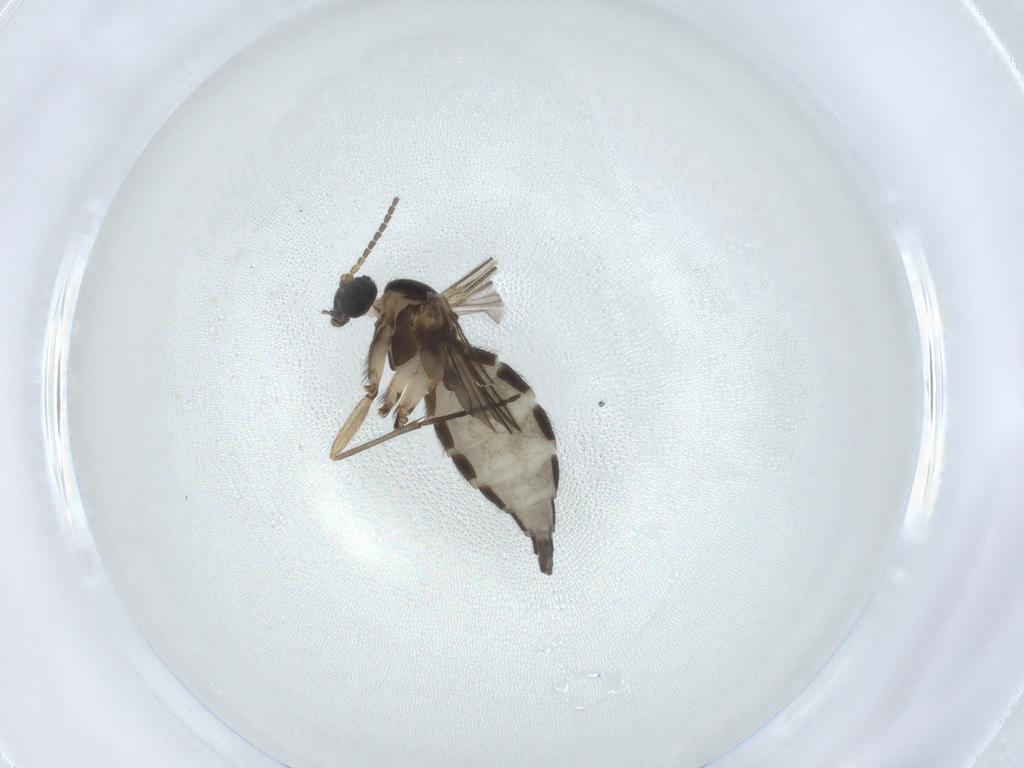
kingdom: Animalia
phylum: Arthropoda
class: Insecta
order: Diptera
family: Sciaridae
